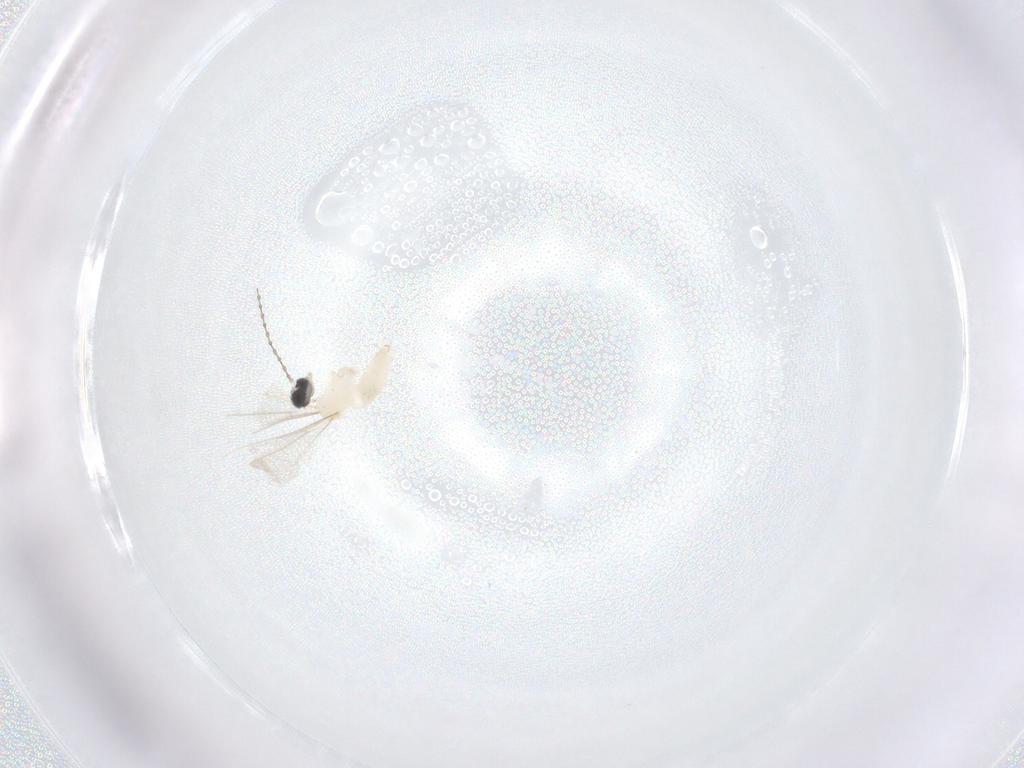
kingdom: Animalia
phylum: Arthropoda
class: Insecta
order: Diptera
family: Cecidomyiidae
